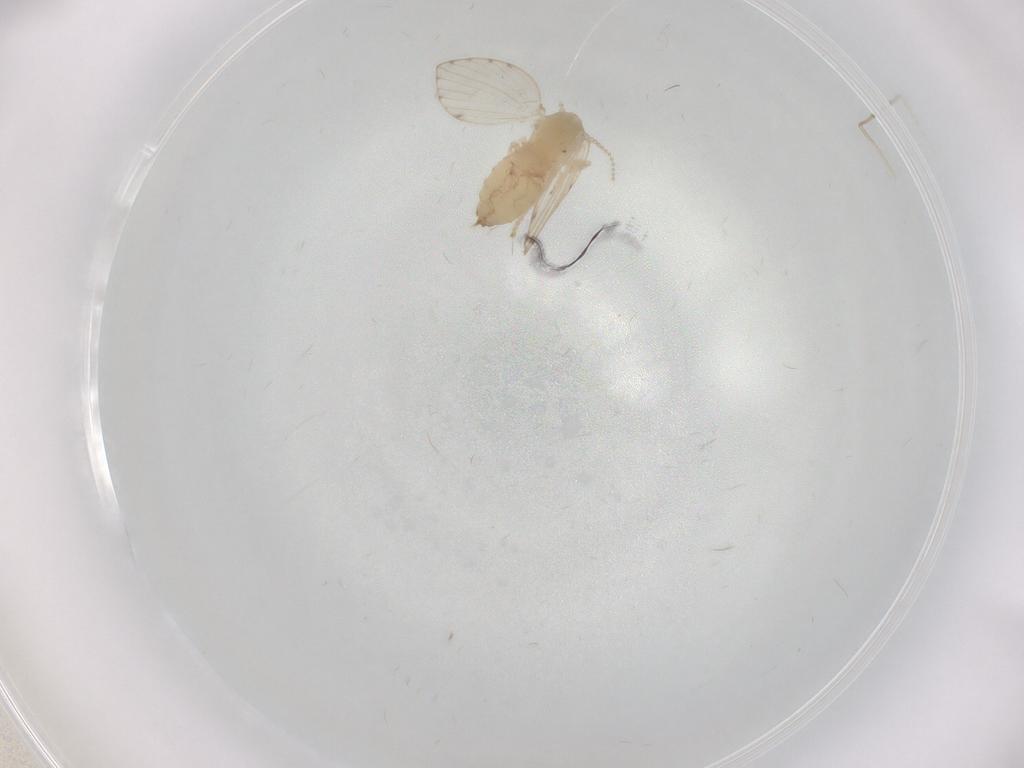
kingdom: Animalia
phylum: Arthropoda
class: Insecta
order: Diptera
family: Psychodidae
